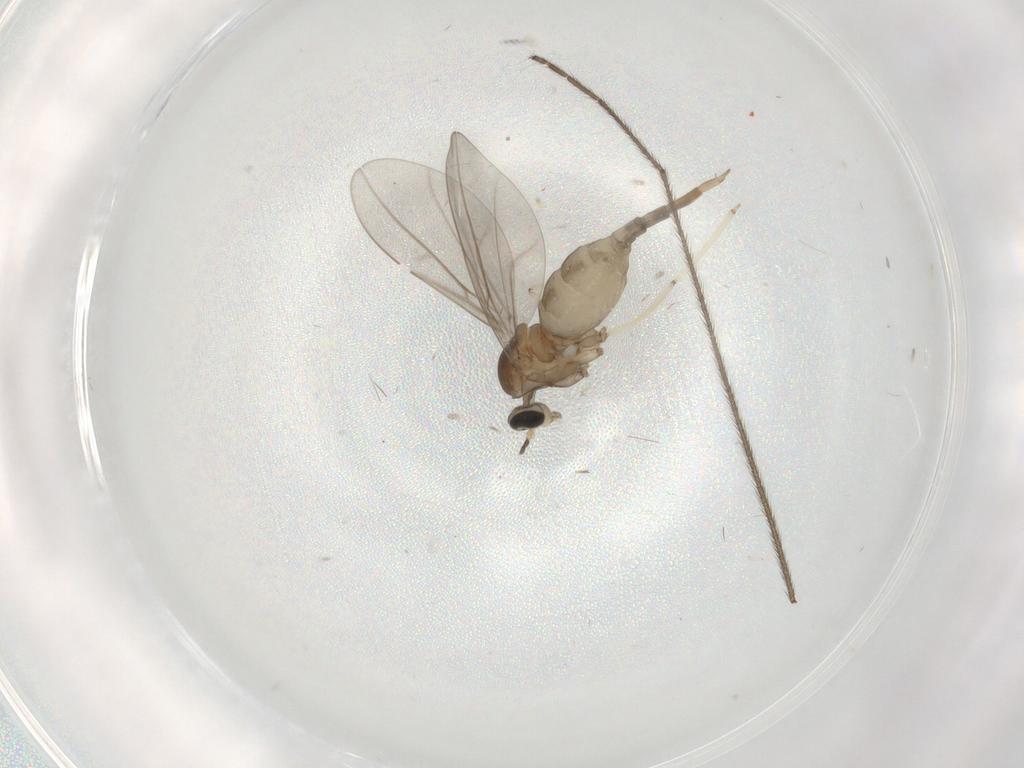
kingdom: Animalia
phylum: Arthropoda
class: Insecta
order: Diptera
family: Cecidomyiidae
